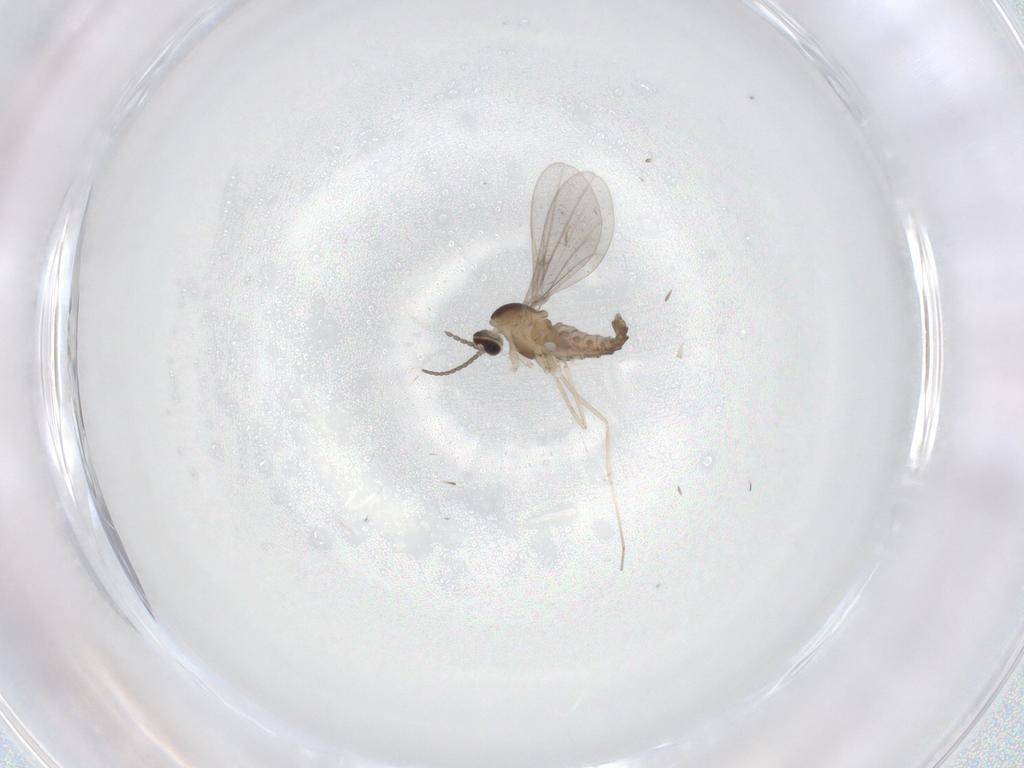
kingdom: Animalia
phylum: Arthropoda
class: Insecta
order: Diptera
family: Cecidomyiidae
